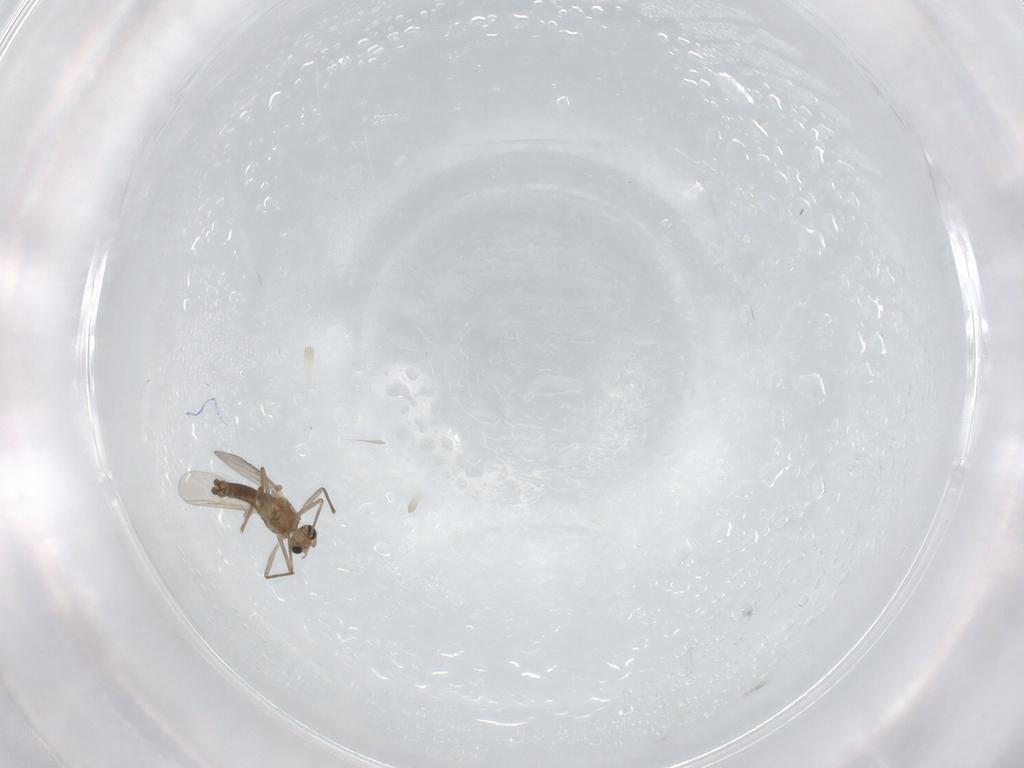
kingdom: Animalia
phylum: Arthropoda
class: Insecta
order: Diptera
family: Chironomidae
